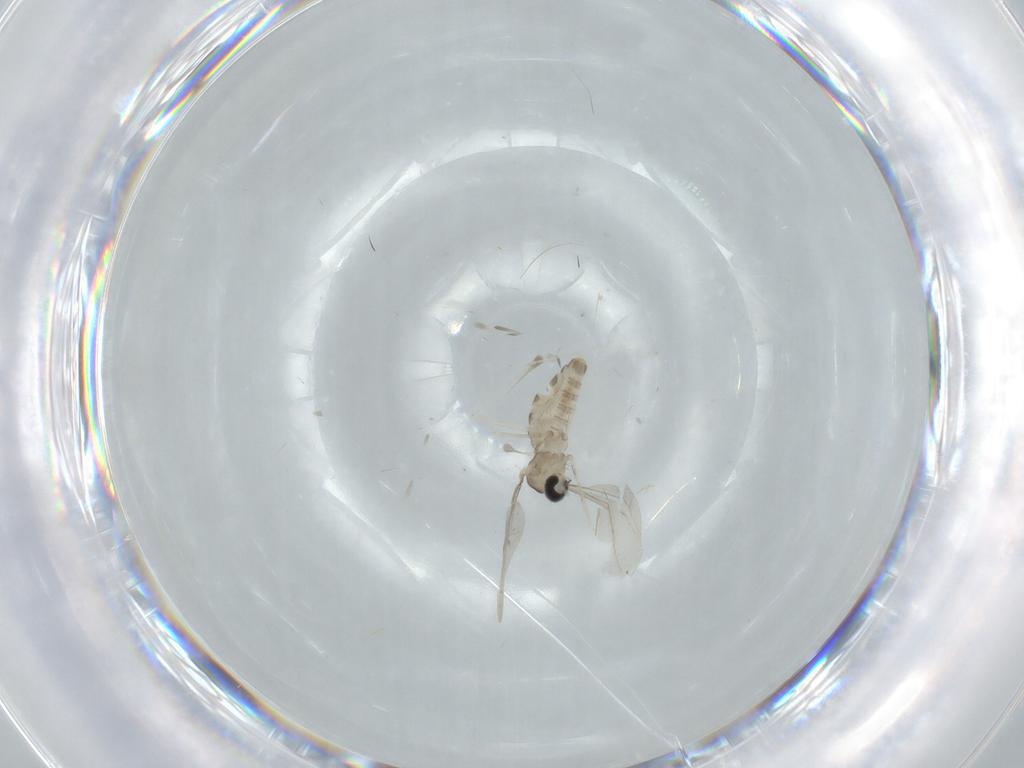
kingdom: Animalia
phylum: Arthropoda
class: Insecta
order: Diptera
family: Cecidomyiidae
